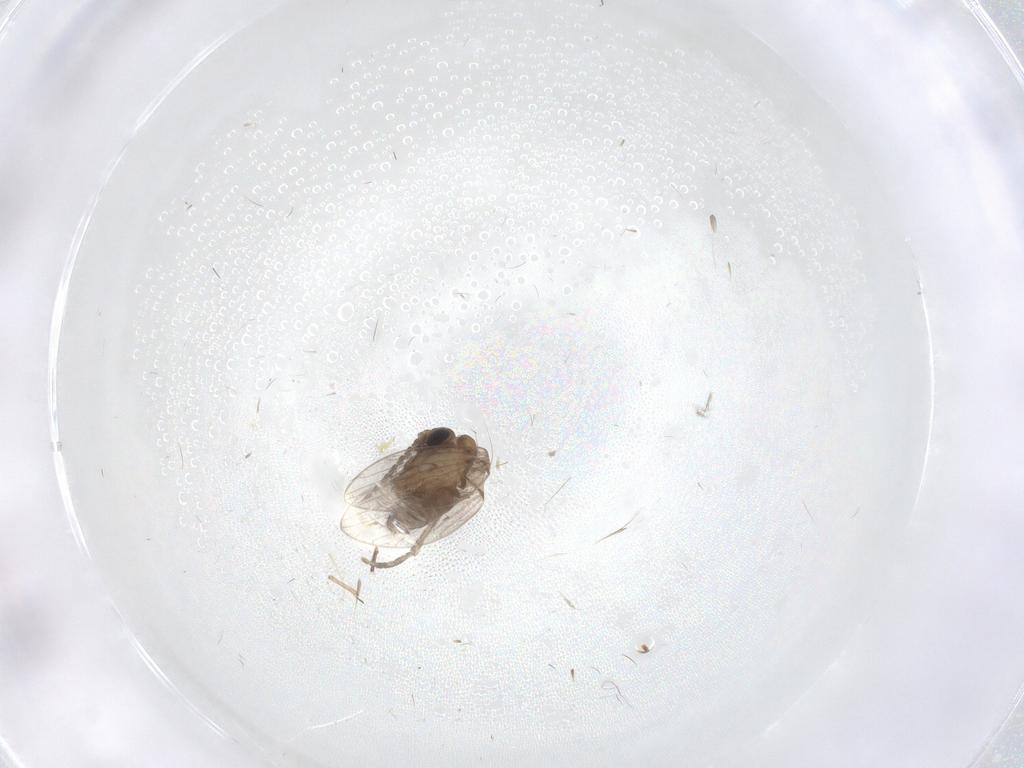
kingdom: Animalia
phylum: Arthropoda
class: Insecta
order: Diptera
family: Psychodidae
